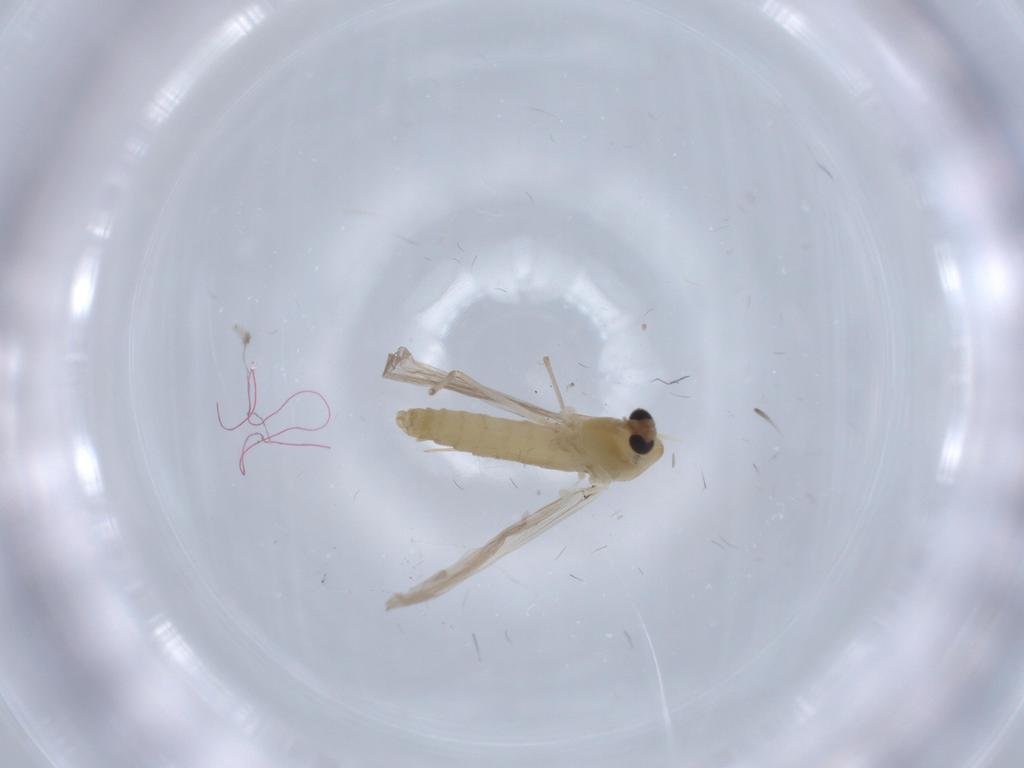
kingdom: Animalia
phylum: Arthropoda
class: Insecta
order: Diptera
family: Chironomidae
